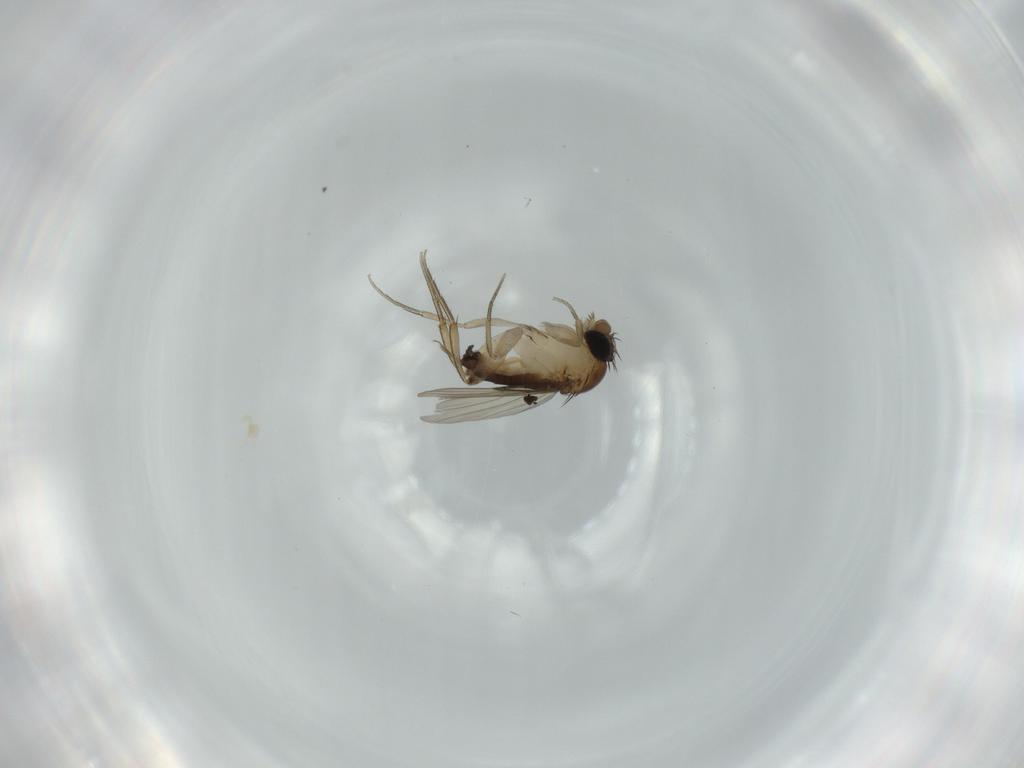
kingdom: Animalia
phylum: Arthropoda
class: Insecta
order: Diptera
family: Phoridae
